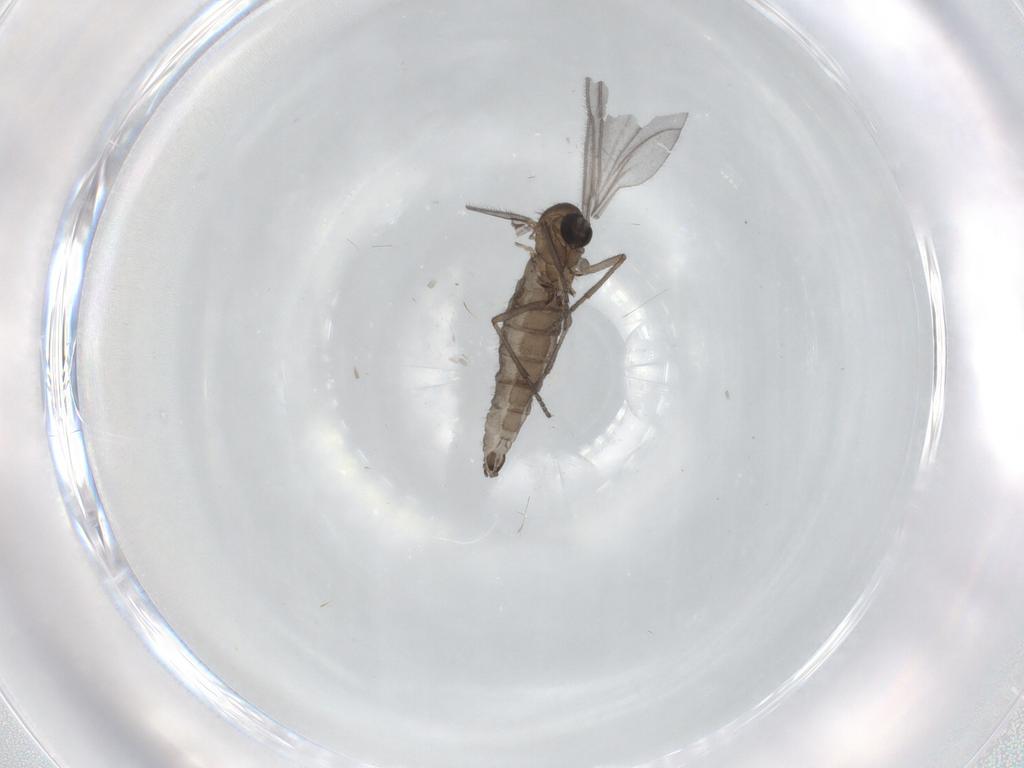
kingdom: Animalia
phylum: Arthropoda
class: Insecta
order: Diptera
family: Sciaridae
